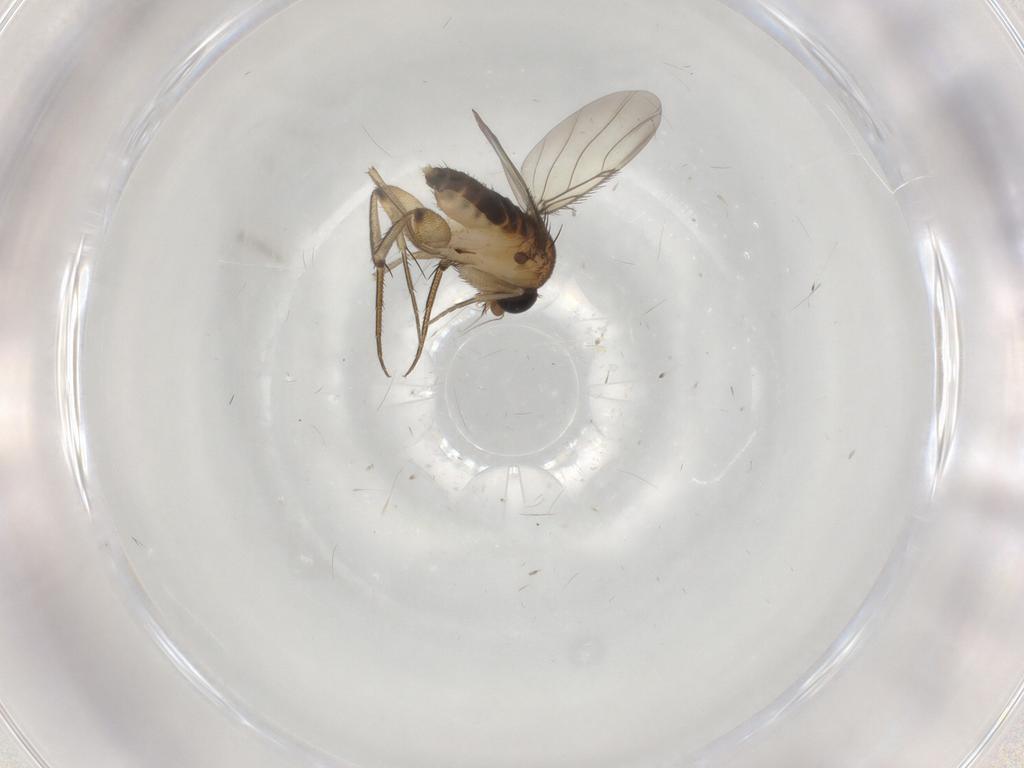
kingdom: Animalia
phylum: Arthropoda
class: Insecta
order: Diptera
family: Phoridae
